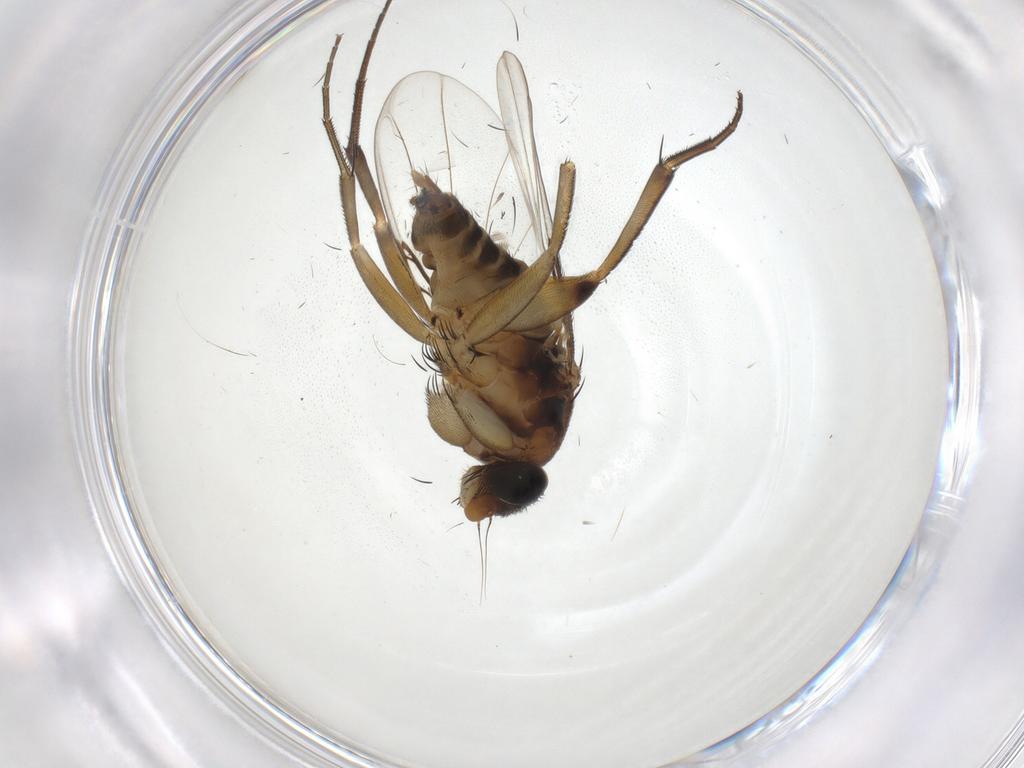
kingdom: Animalia
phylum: Arthropoda
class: Insecta
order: Diptera
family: Phoridae
